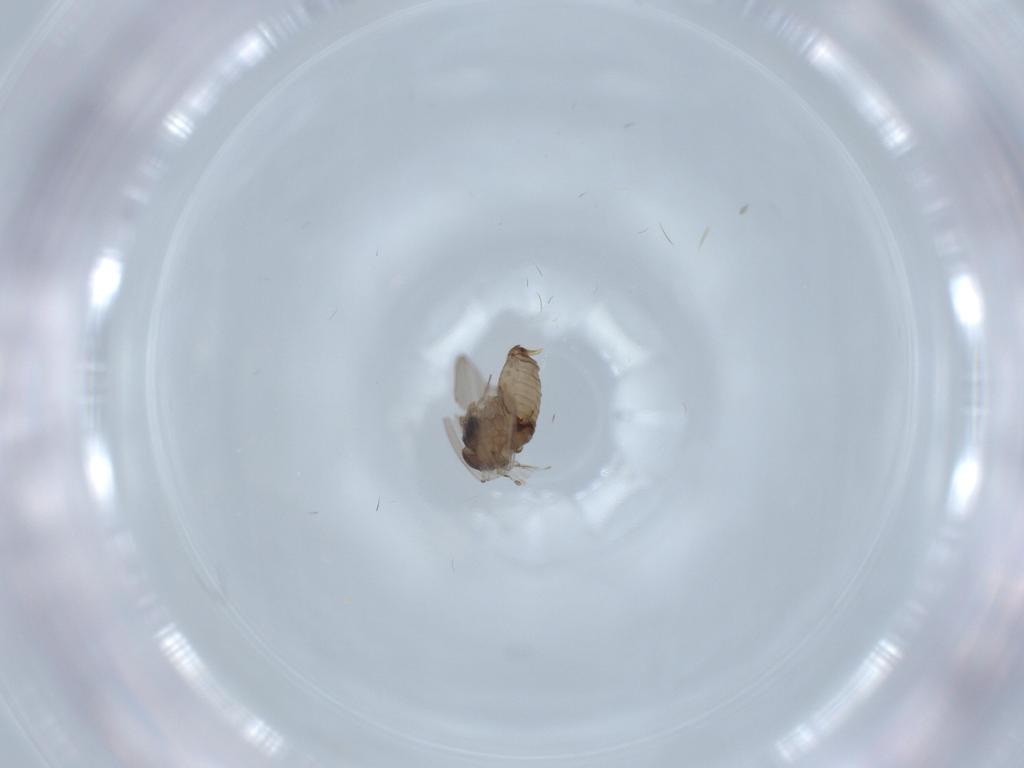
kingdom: Animalia
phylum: Arthropoda
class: Insecta
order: Diptera
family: Psychodidae
